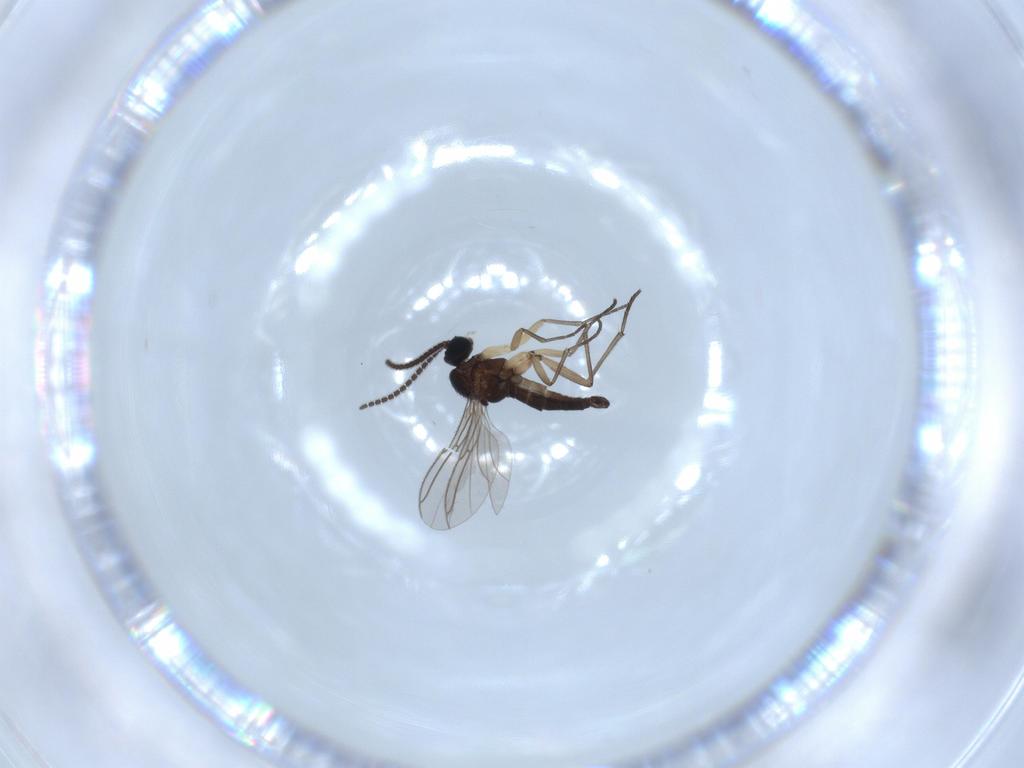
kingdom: Animalia
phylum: Arthropoda
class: Insecta
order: Diptera
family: Sciaridae
